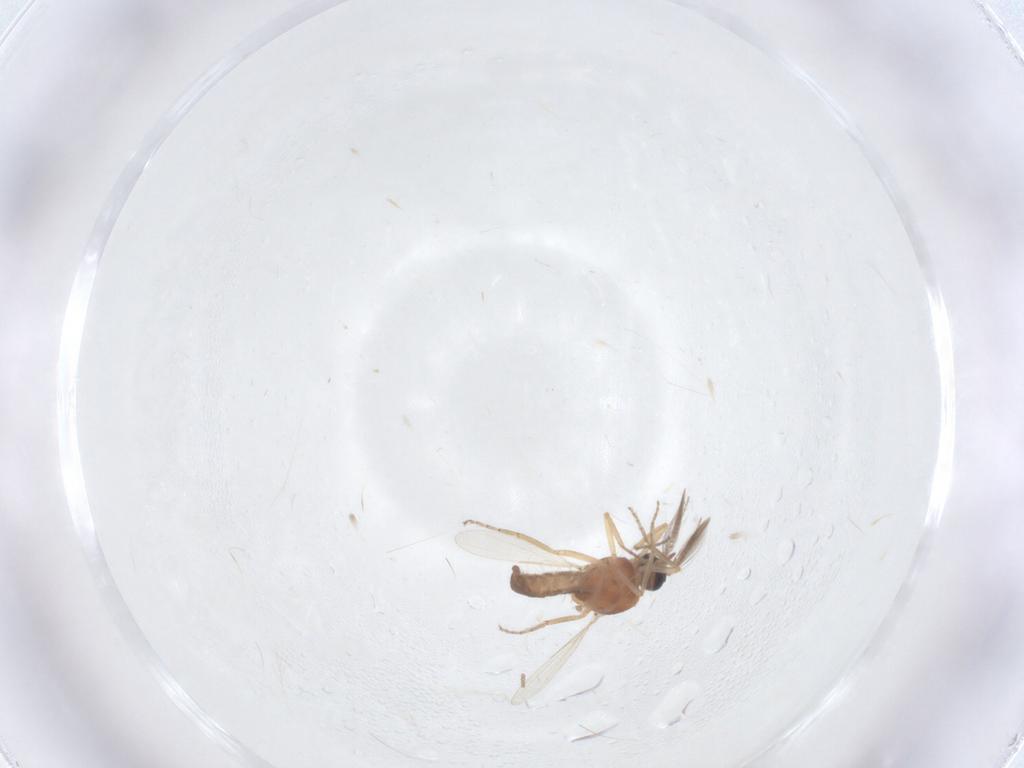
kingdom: Animalia
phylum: Arthropoda
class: Insecta
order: Diptera
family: Ceratopogonidae
